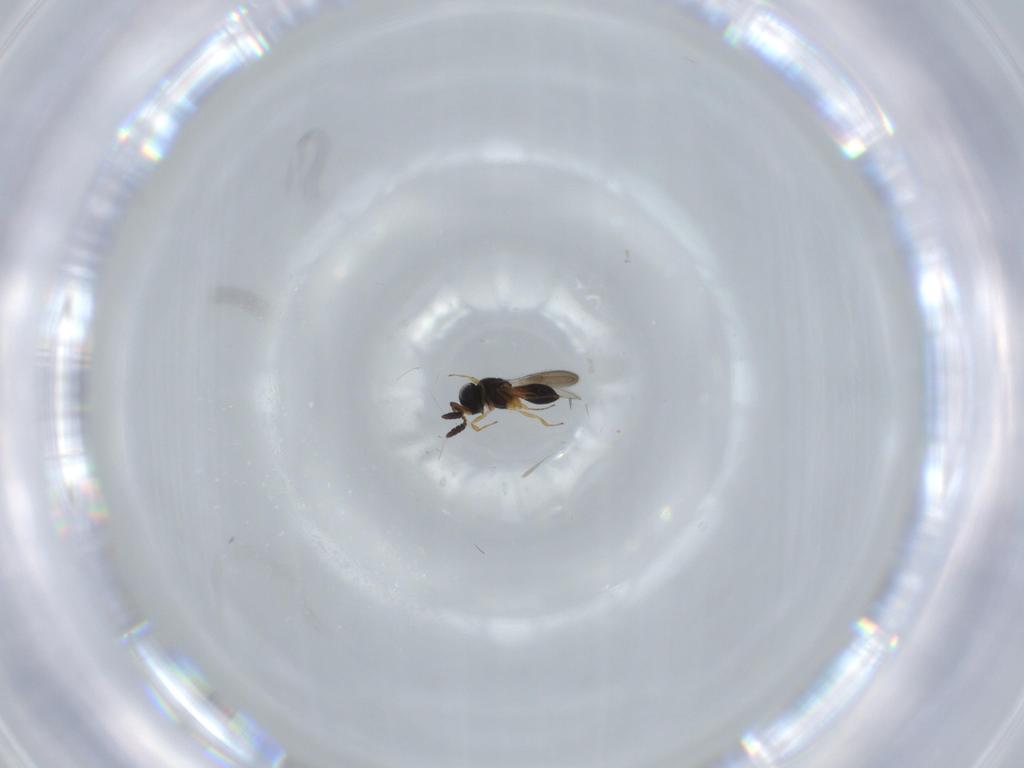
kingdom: Animalia
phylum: Arthropoda
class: Insecta
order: Hymenoptera
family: Scelionidae
